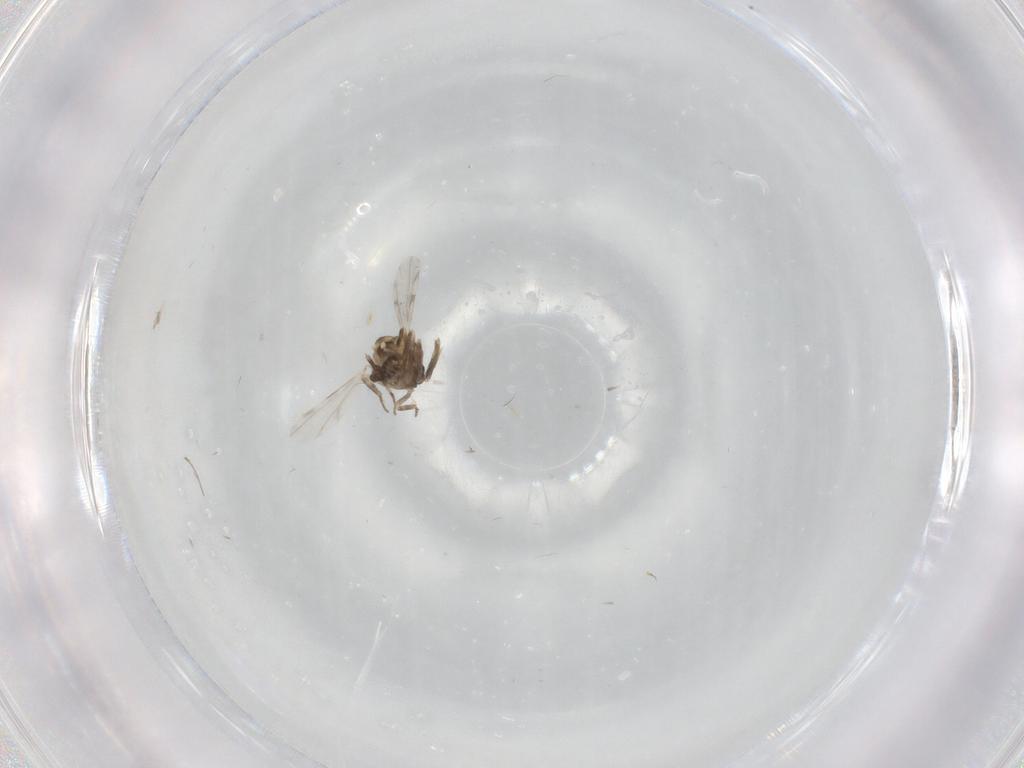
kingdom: Animalia
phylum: Arthropoda
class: Insecta
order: Diptera
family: Ceratopogonidae
